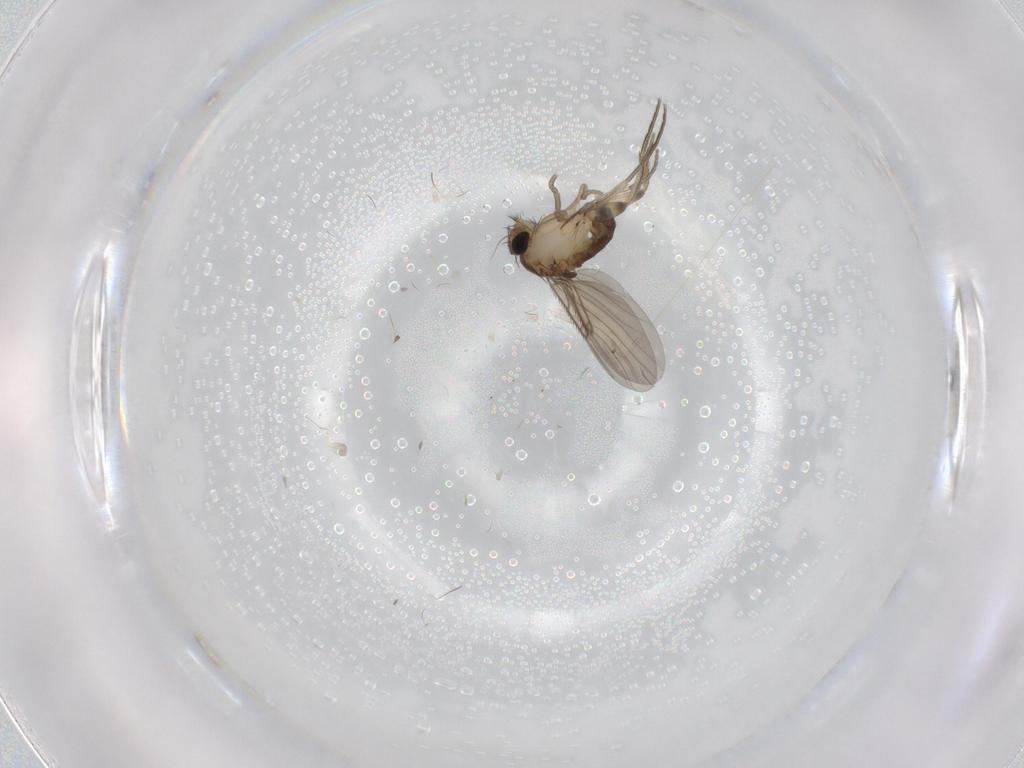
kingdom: Animalia
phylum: Arthropoda
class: Insecta
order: Diptera
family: Phoridae
